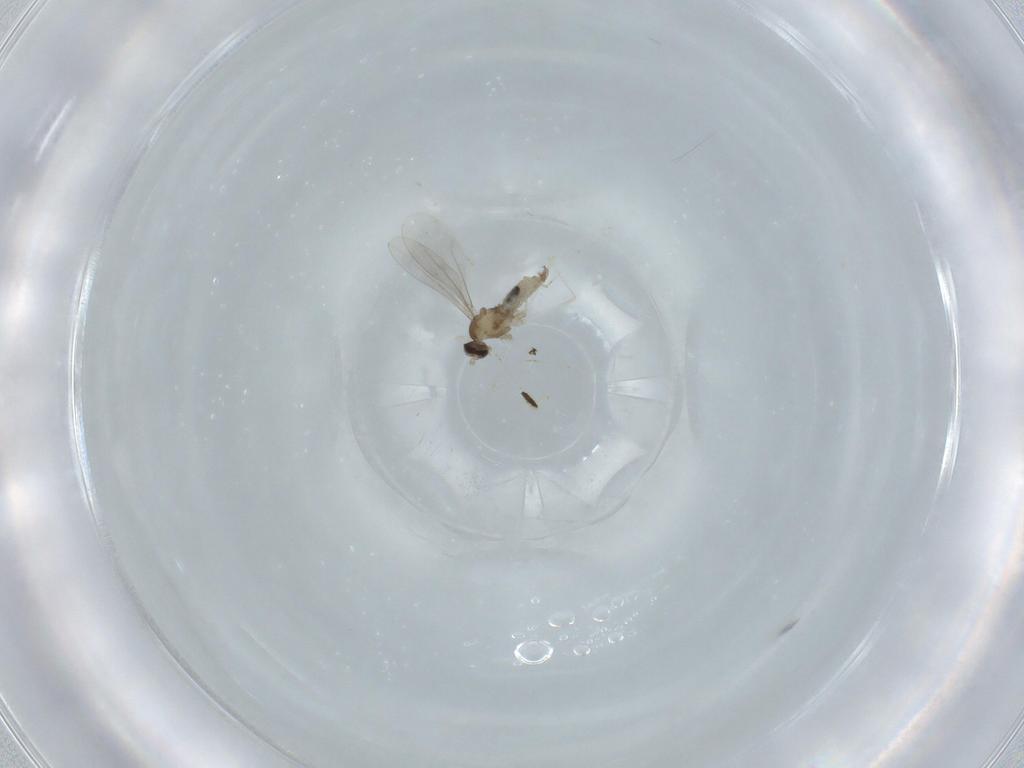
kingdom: Animalia
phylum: Arthropoda
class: Insecta
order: Diptera
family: Stratiomyidae
